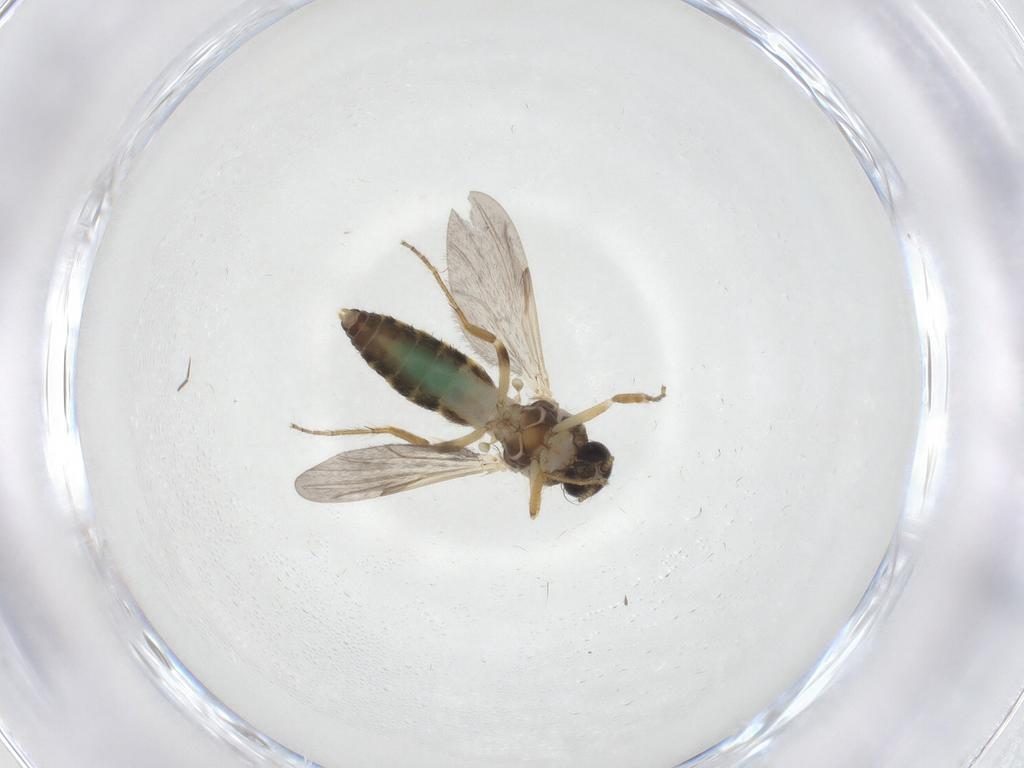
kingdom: Animalia
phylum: Arthropoda
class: Insecta
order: Diptera
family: Ceratopogonidae
